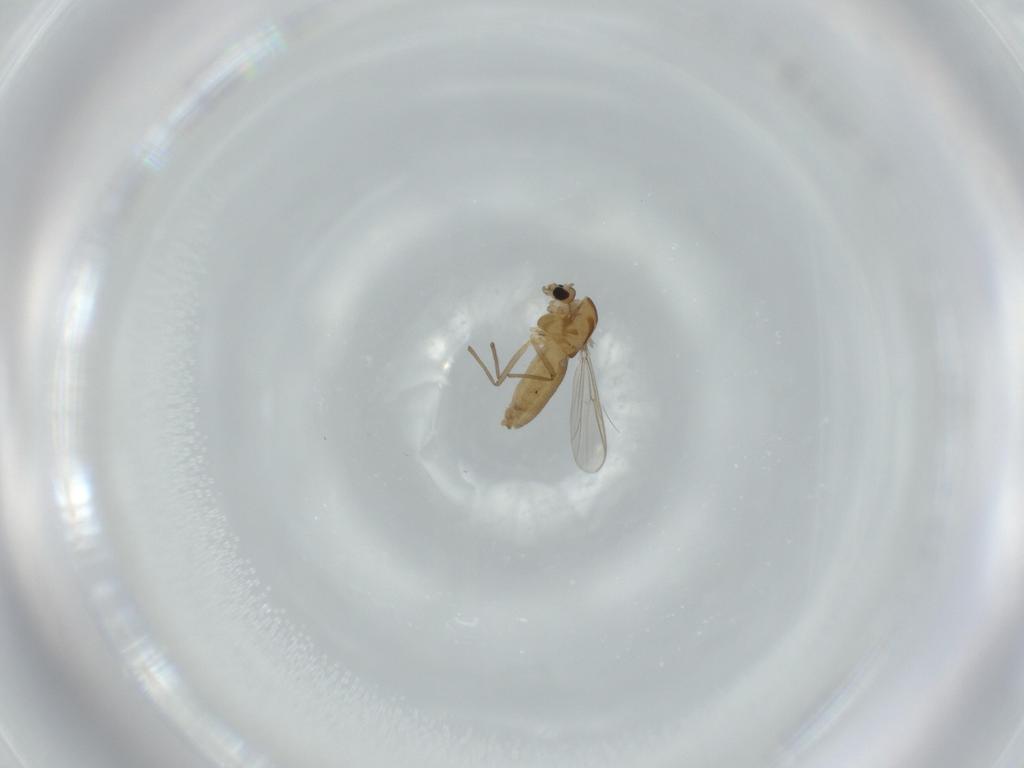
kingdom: Animalia
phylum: Arthropoda
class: Insecta
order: Diptera
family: Chironomidae
